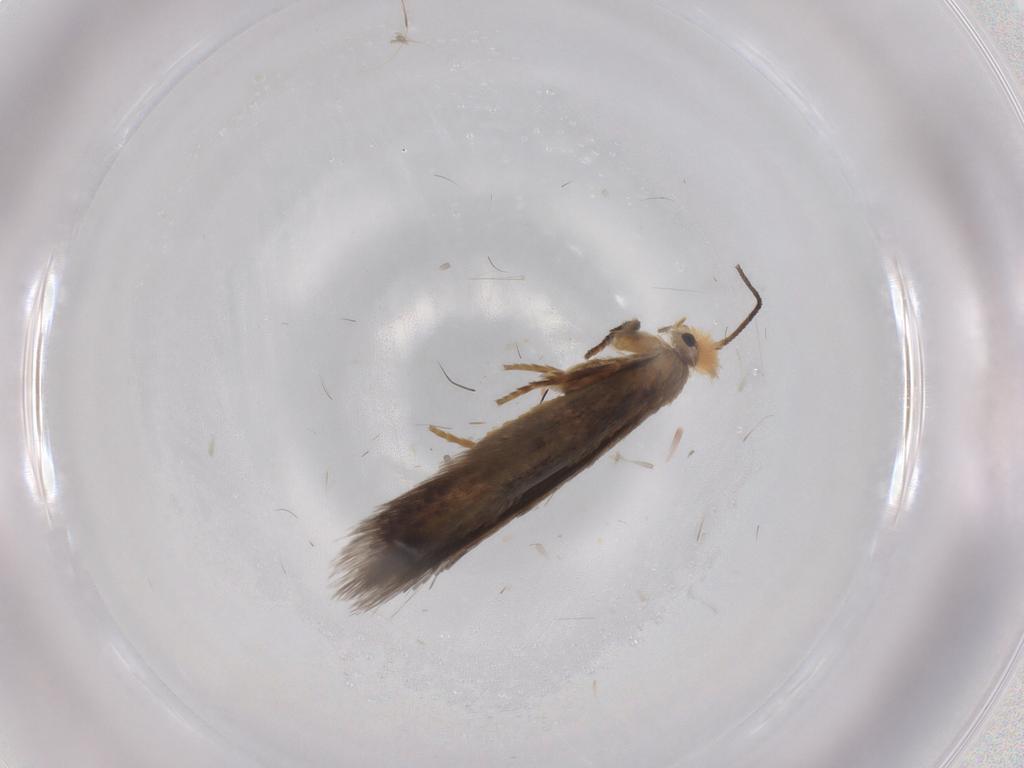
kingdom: Animalia
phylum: Arthropoda
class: Insecta
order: Lepidoptera
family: Nepticulidae
